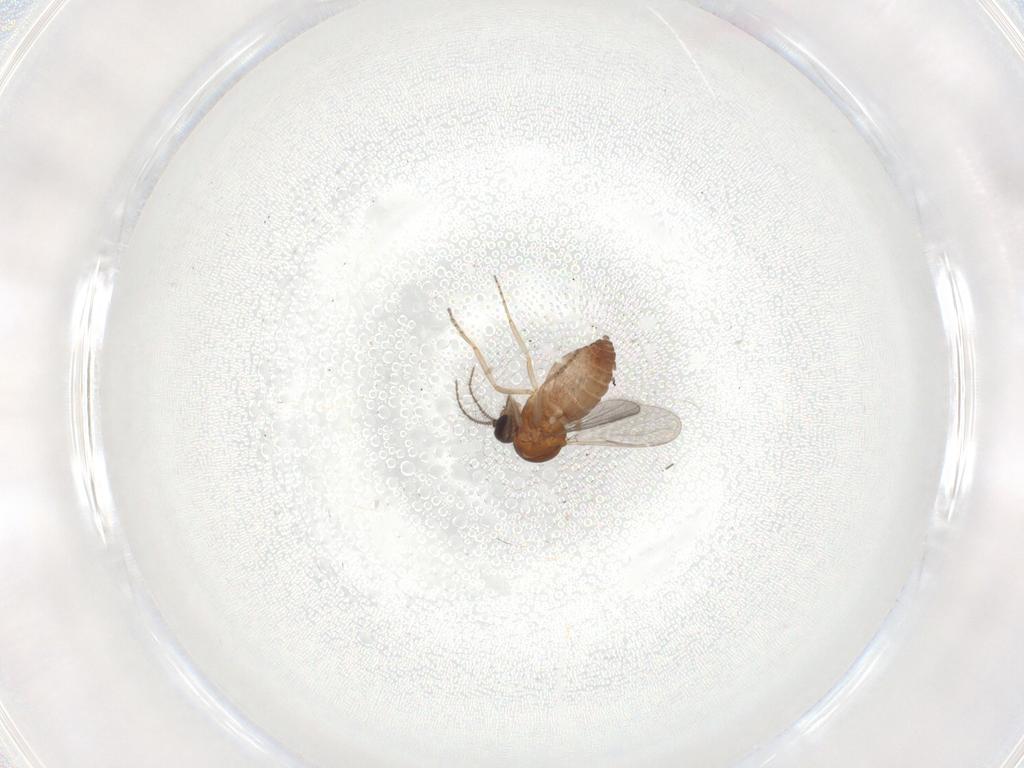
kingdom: Animalia
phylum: Arthropoda
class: Insecta
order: Diptera
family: Ceratopogonidae
